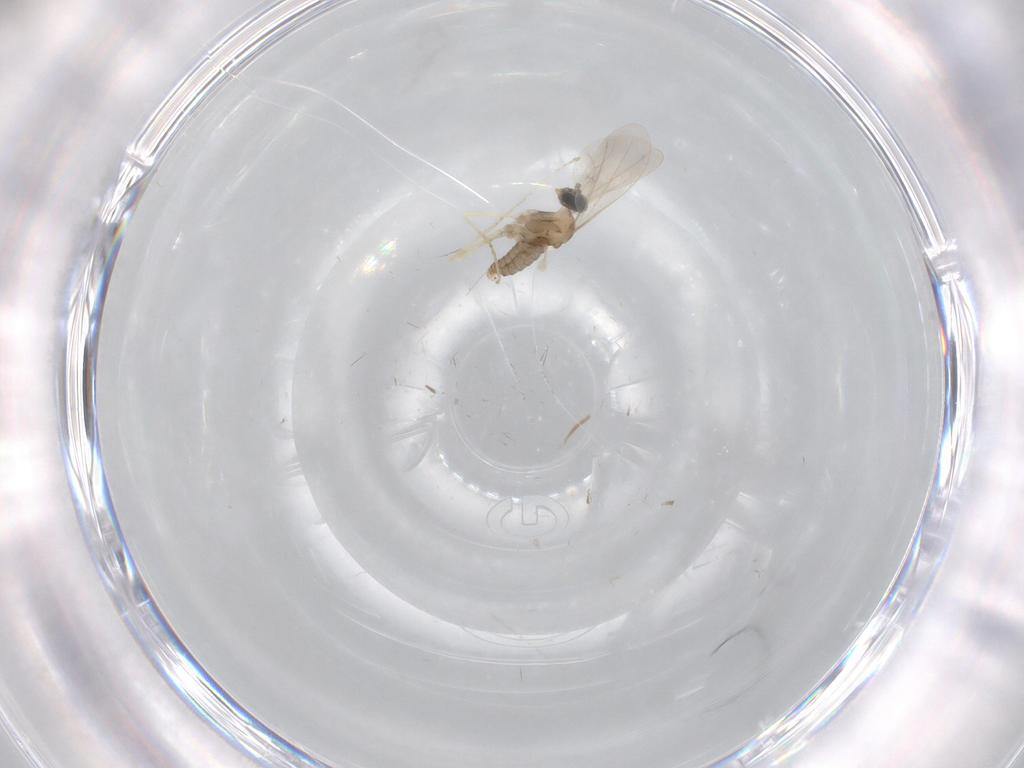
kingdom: Animalia
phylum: Arthropoda
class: Insecta
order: Diptera
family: Cecidomyiidae
